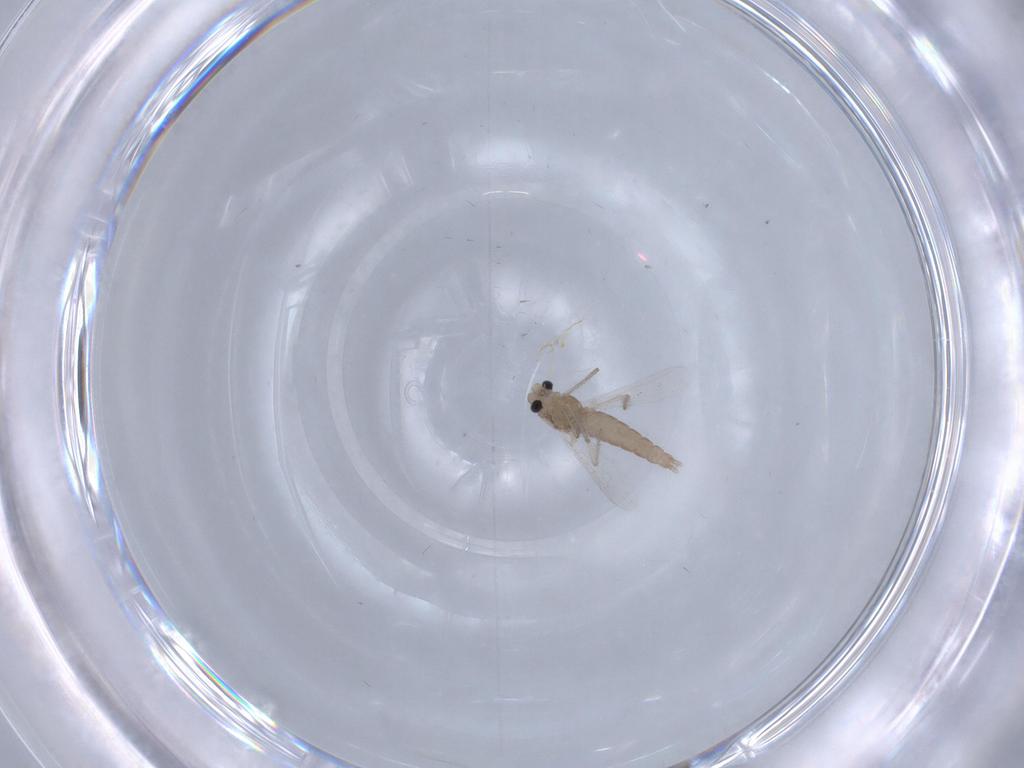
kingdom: Animalia
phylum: Arthropoda
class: Insecta
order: Diptera
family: Chironomidae
